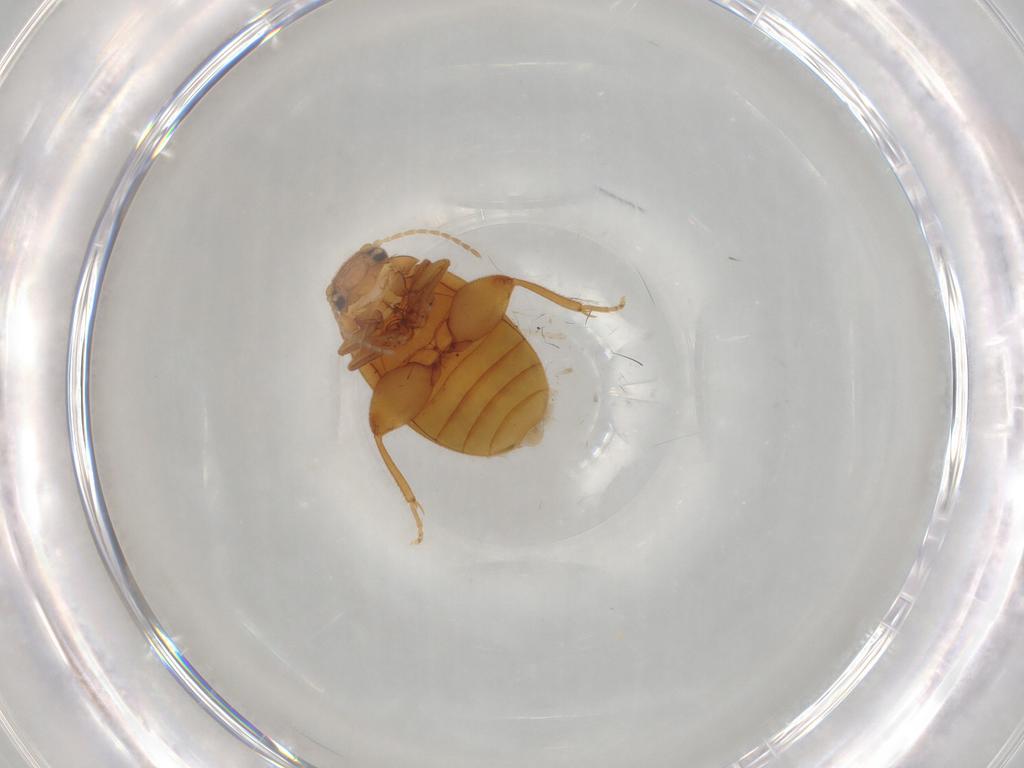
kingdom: Animalia
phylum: Arthropoda
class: Insecta
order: Coleoptera
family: Scirtidae
